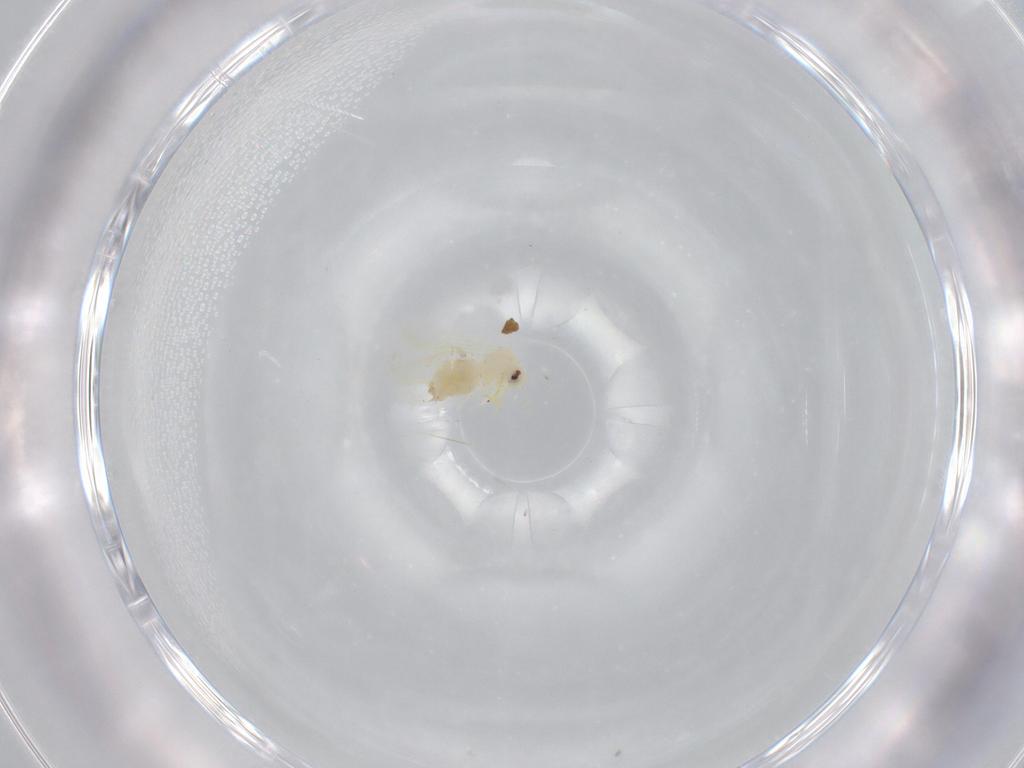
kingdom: Animalia
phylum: Arthropoda
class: Insecta
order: Hemiptera
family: Aleyrodidae
